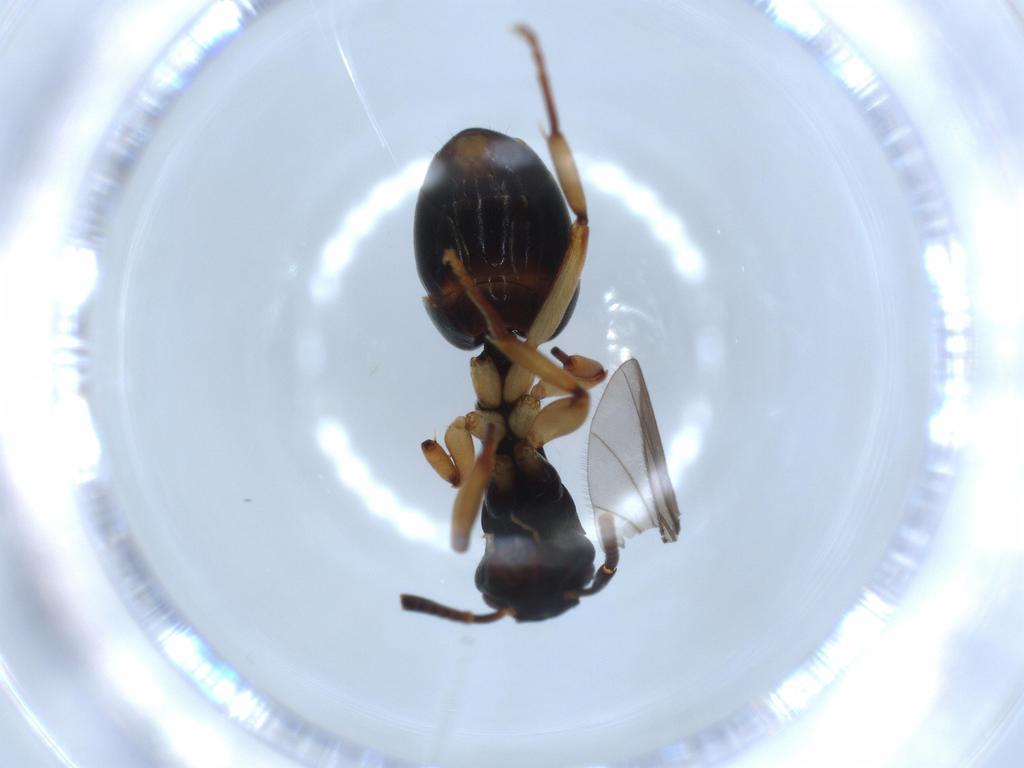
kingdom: Animalia
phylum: Arthropoda
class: Insecta
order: Hymenoptera
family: Formicidae
